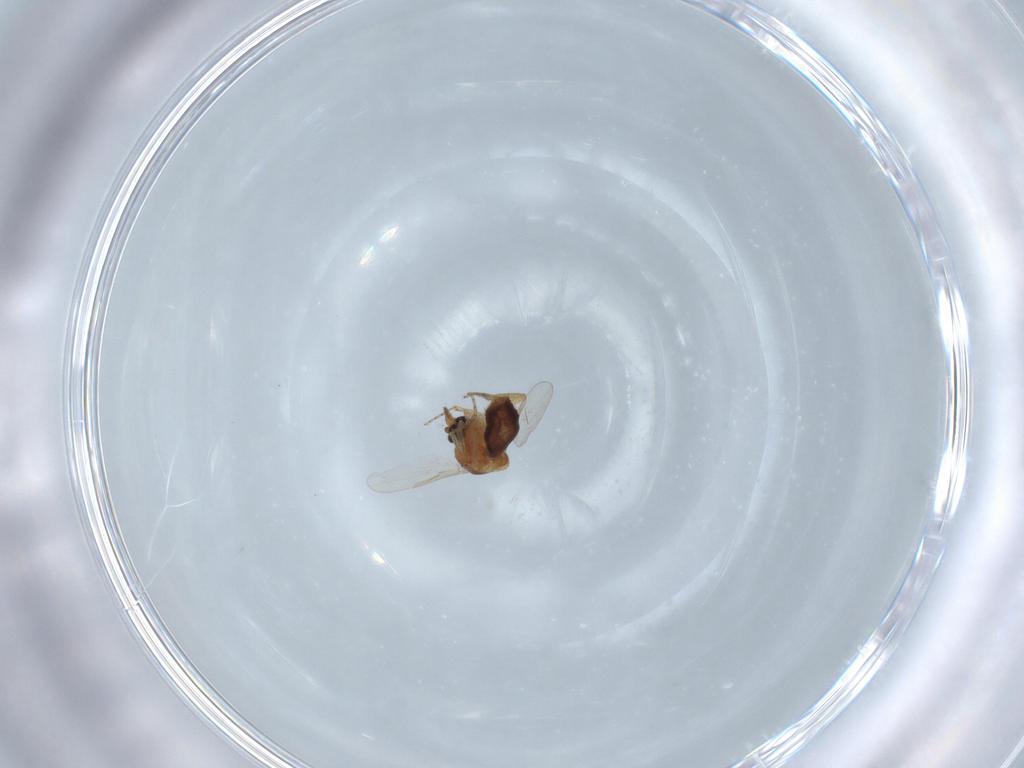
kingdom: Animalia
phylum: Arthropoda
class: Insecta
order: Diptera
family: Ceratopogonidae
